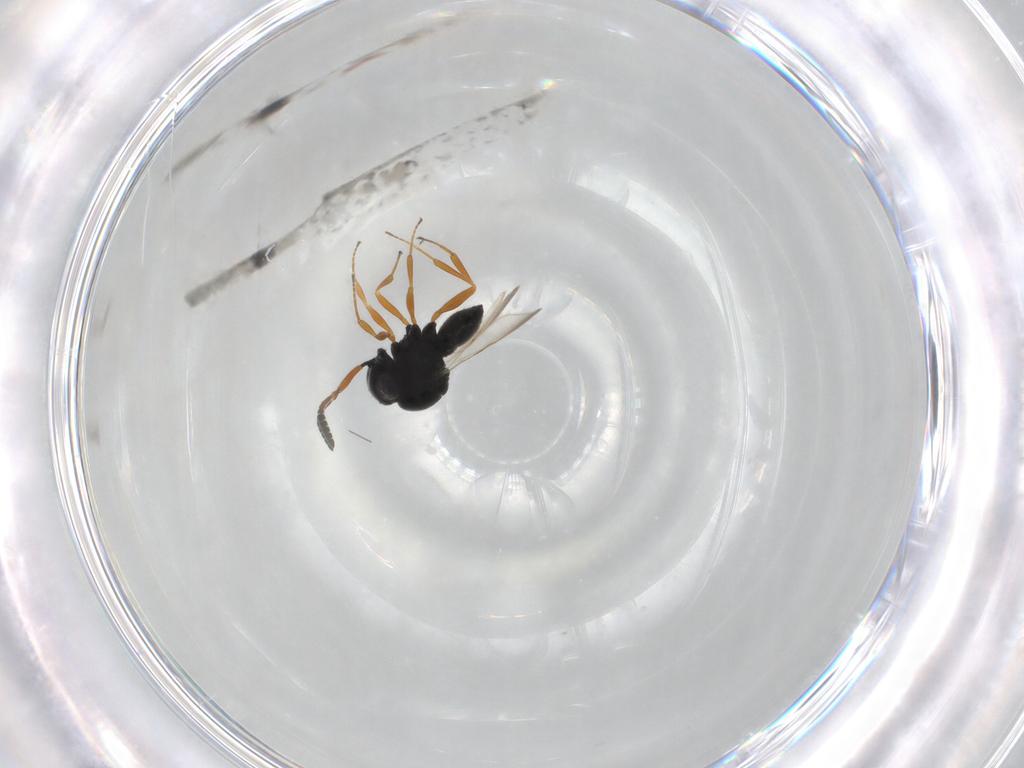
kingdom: Animalia
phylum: Arthropoda
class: Insecta
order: Hymenoptera
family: Scelionidae
